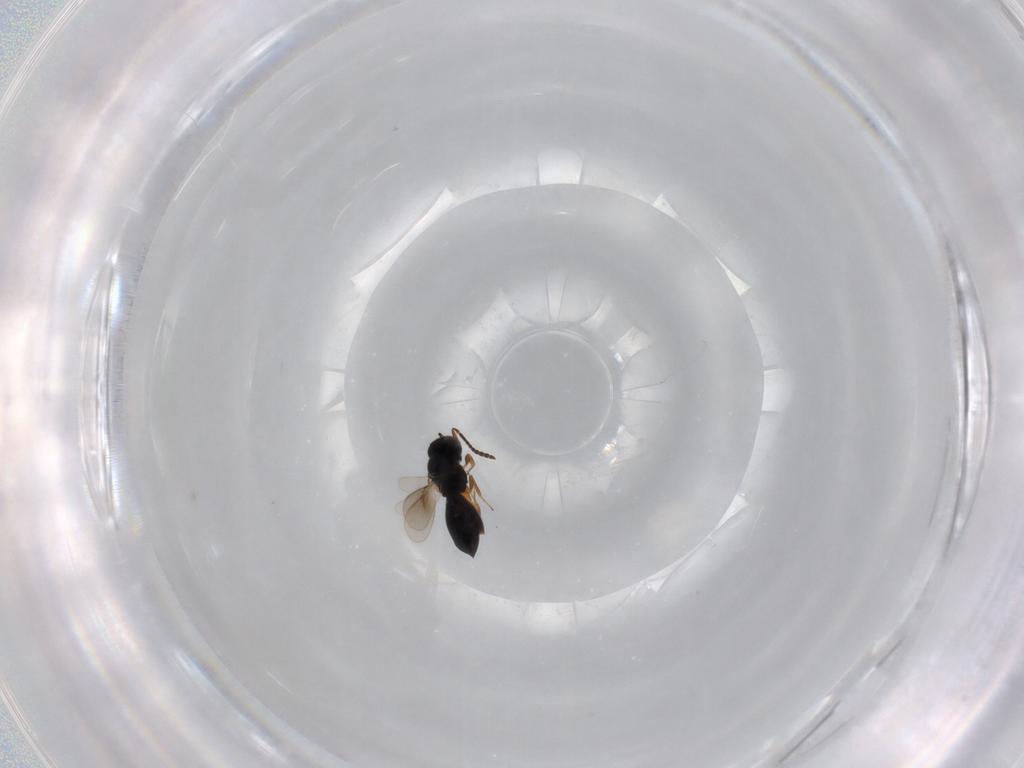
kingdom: Animalia
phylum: Arthropoda
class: Insecta
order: Hymenoptera
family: Scelionidae
